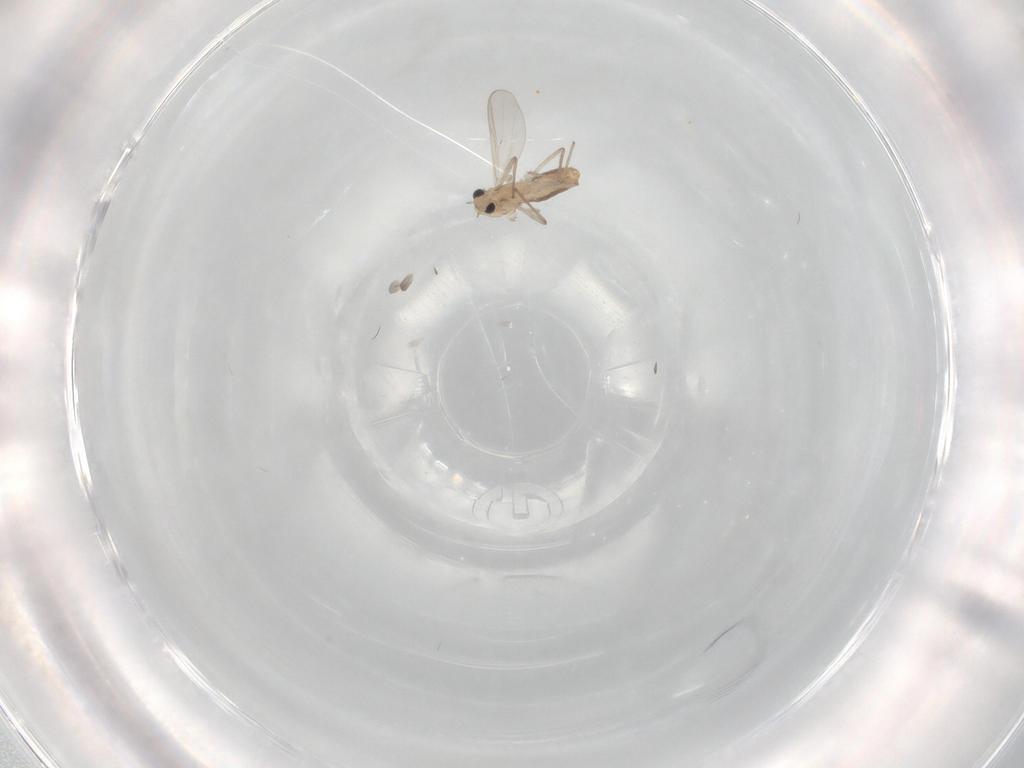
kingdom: Animalia
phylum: Arthropoda
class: Insecta
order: Diptera
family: Chironomidae
